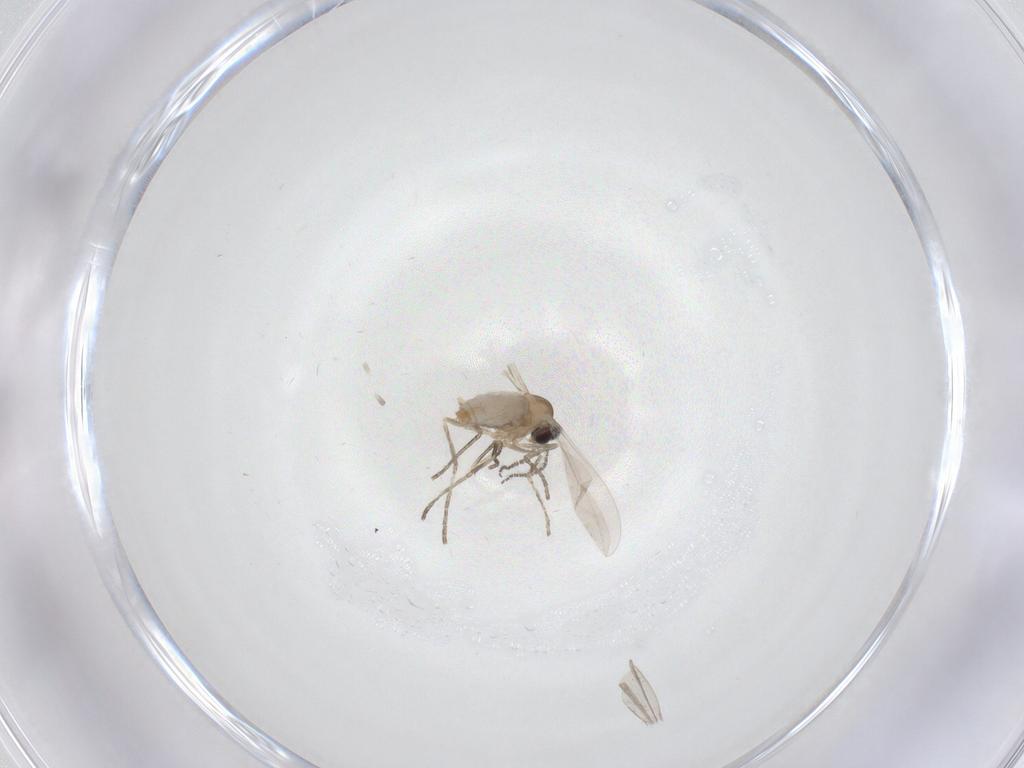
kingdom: Animalia
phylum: Arthropoda
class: Insecta
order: Diptera
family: Cecidomyiidae
